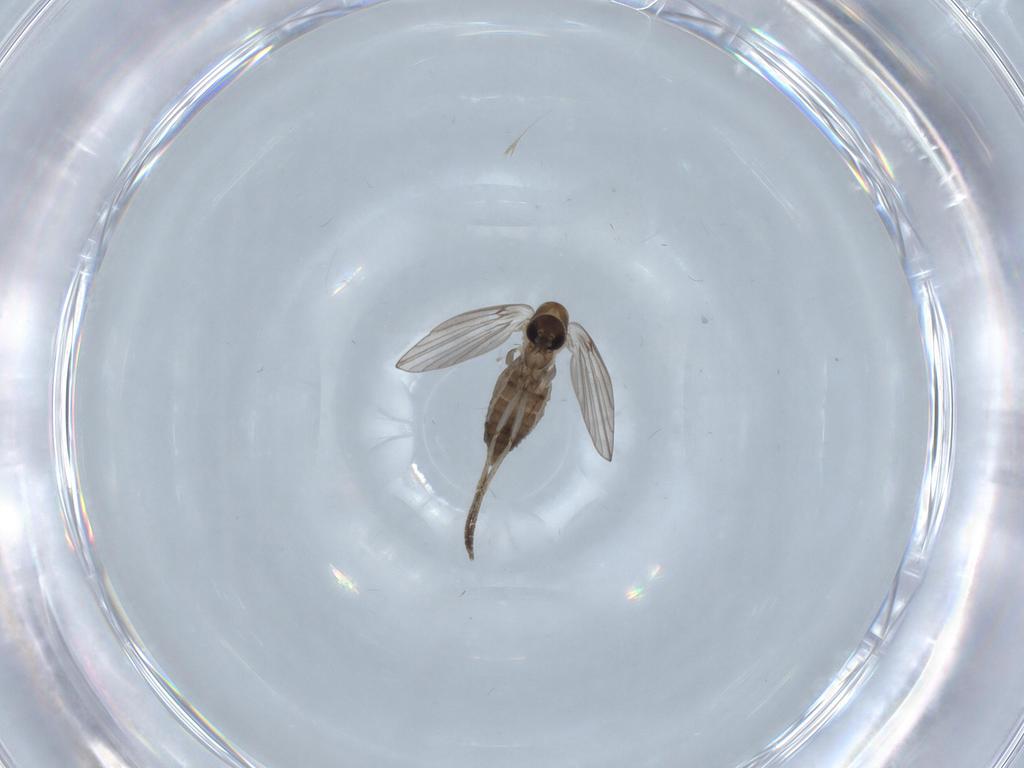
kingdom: Animalia
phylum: Arthropoda
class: Insecta
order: Diptera
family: Psychodidae
